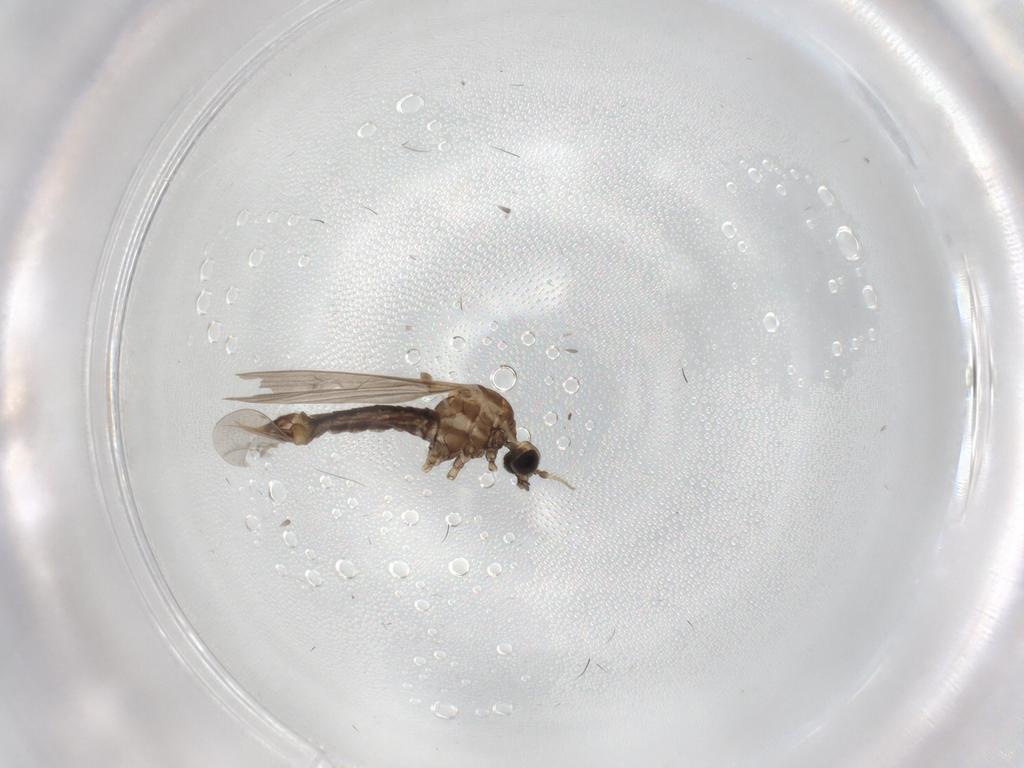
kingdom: Animalia
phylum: Arthropoda
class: Insecta
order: Diptera
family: Limoniidae
